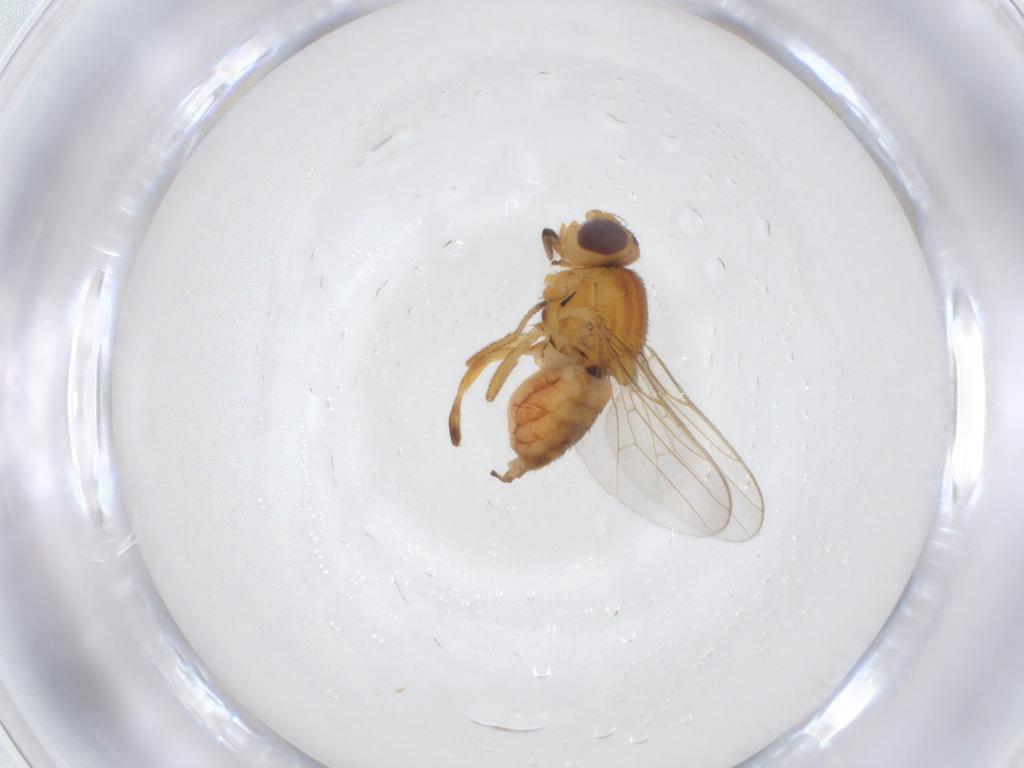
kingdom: Animalia
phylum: Arthropoda
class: Insecta
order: Diptera
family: Chloropidae
